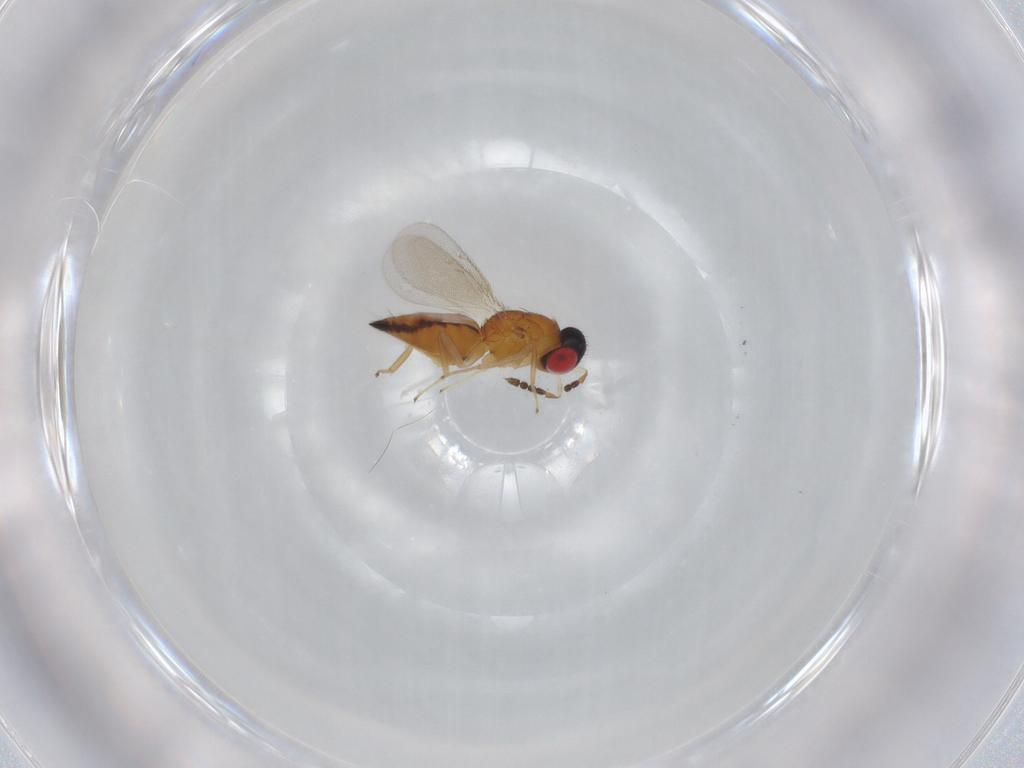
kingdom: Animalia
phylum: Arthropoda
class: Insecta
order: Hymenoptera
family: Eulophidae
